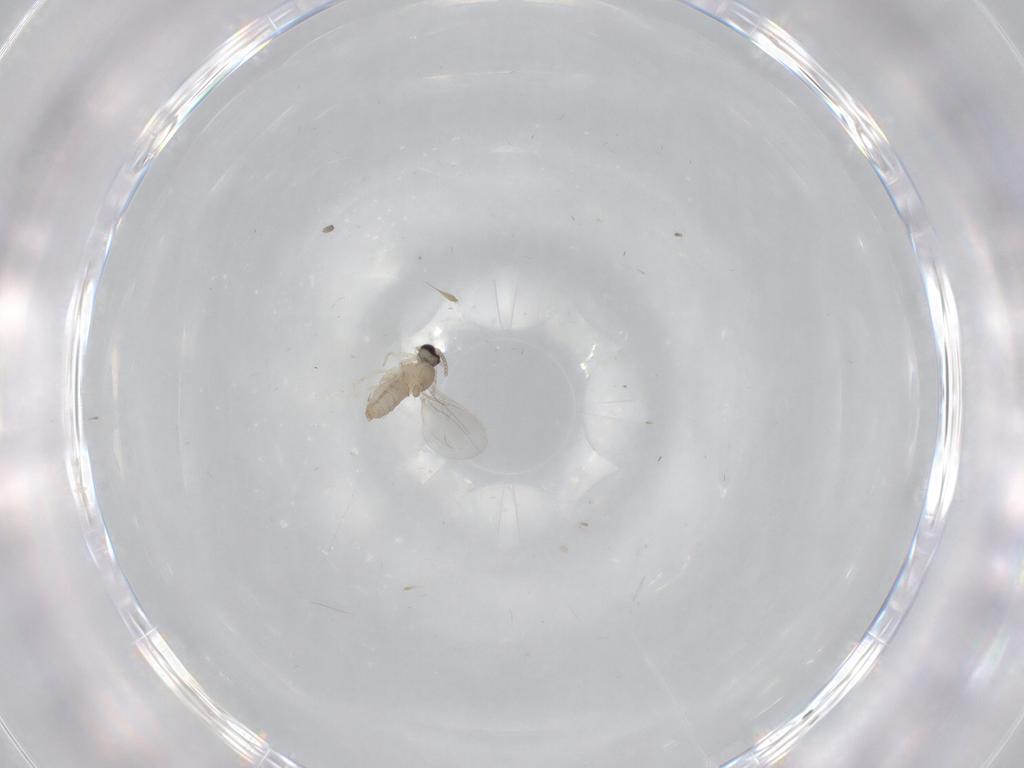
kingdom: Animalia
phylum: Arthropoda
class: Insecta
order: Diptera
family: Cecidomyiidae
